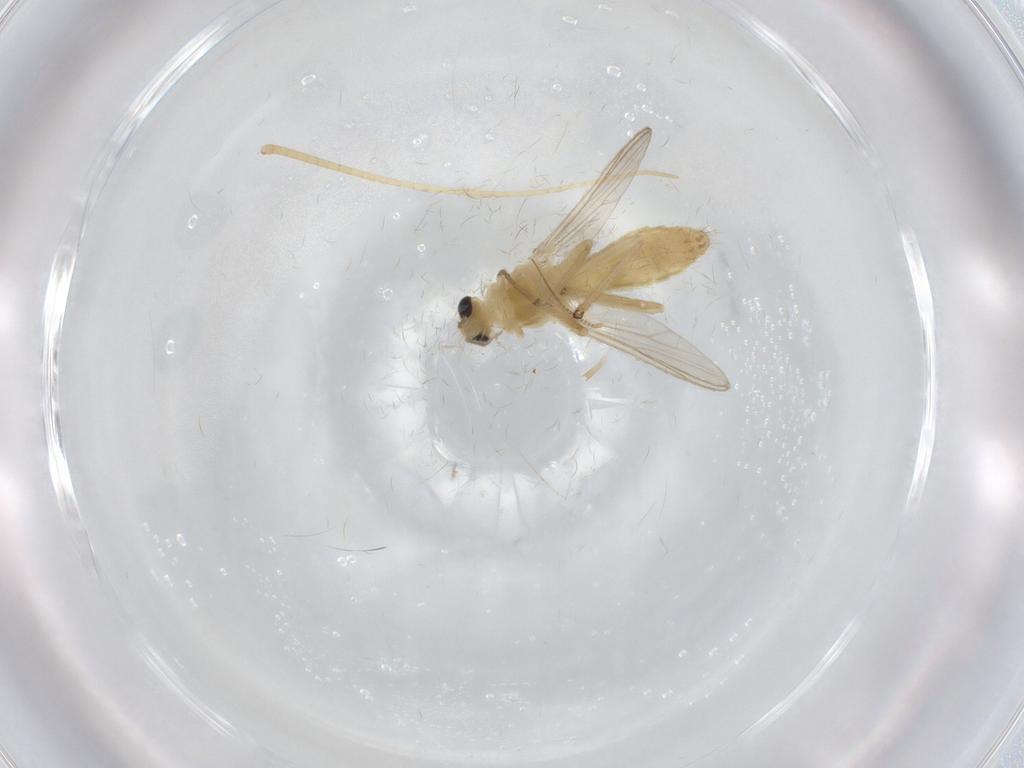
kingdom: Animalia
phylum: Arthropoda
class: Insecta
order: Diptera
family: Chironomidae
